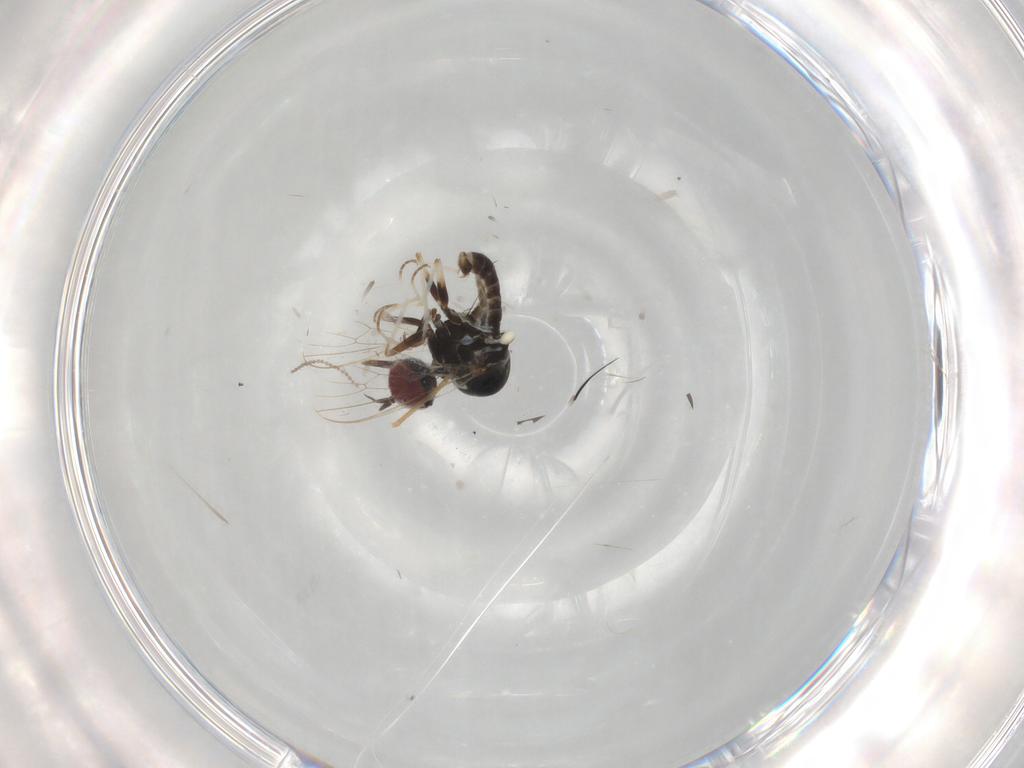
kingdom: Animalia
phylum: Arthropoda
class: Insecta
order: Diptera
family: Mythicomyiidae
